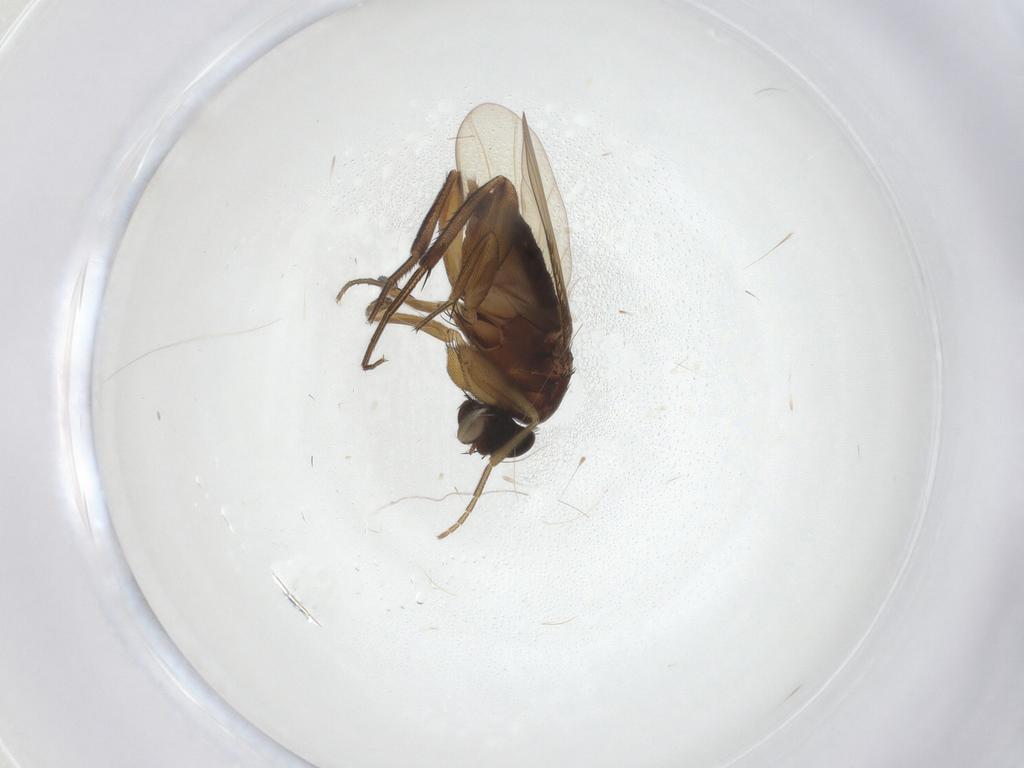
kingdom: Animalia
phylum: Arthropoda
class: Insecta
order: Diptera
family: Phoridae
